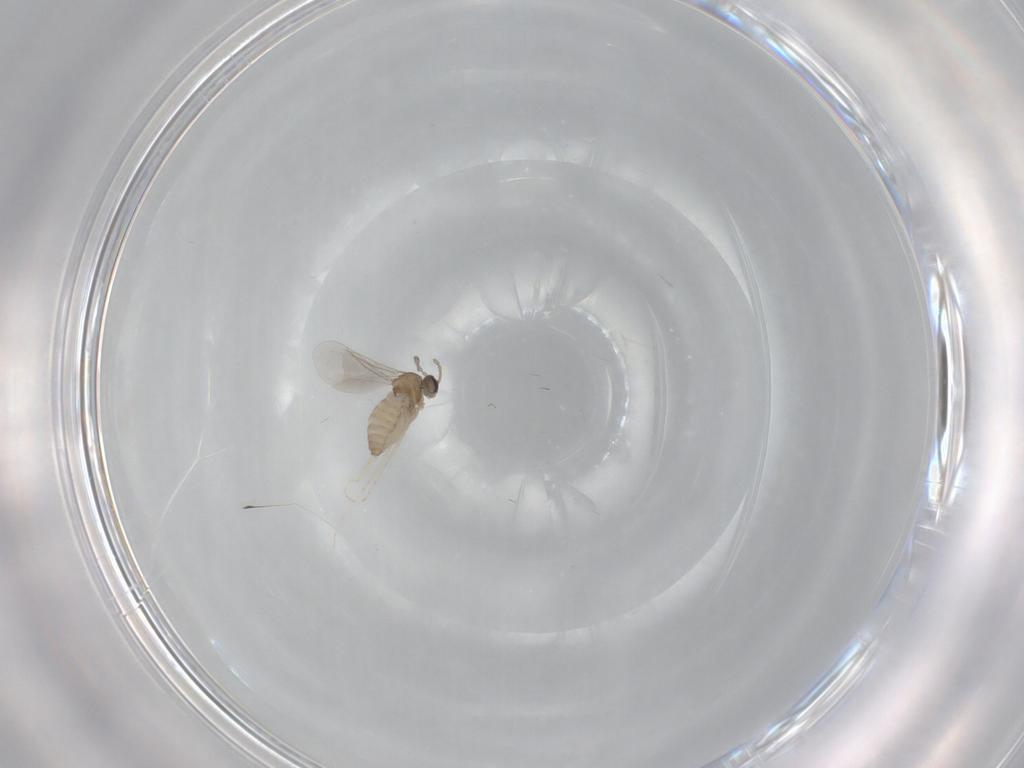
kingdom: Animalia
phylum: Arthropoda
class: Insecta
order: Diptera
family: Cecidomyiidae
